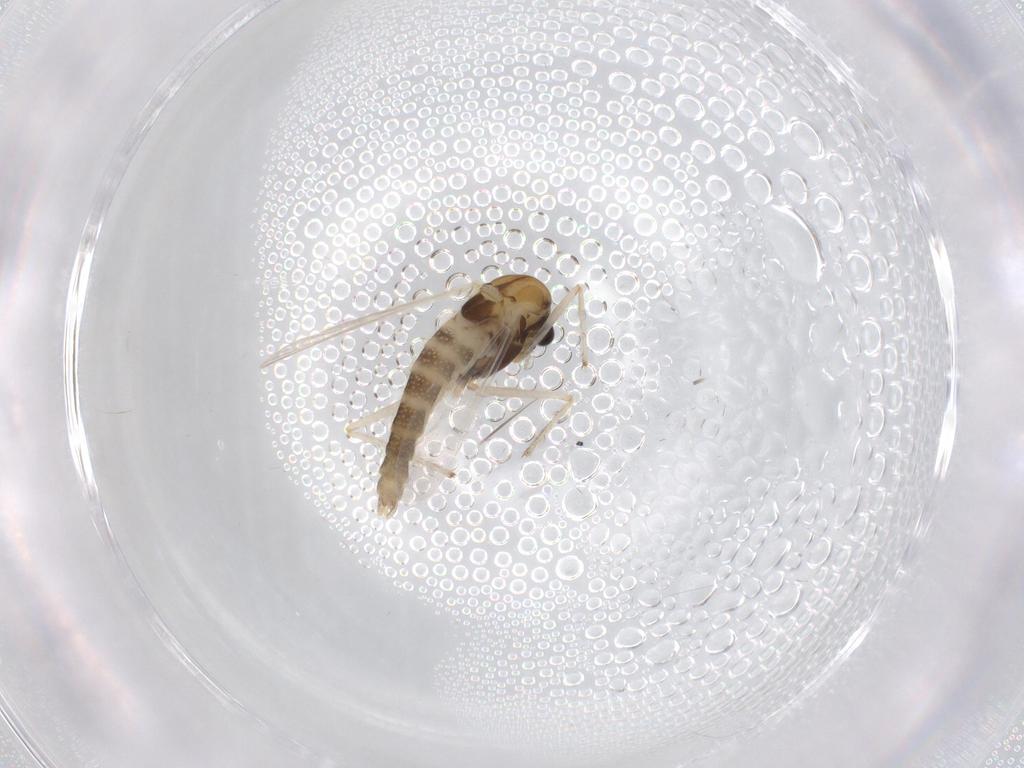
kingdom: Animalia
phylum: Arthropoda
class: Insecta
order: Diptera
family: Chironomidae
